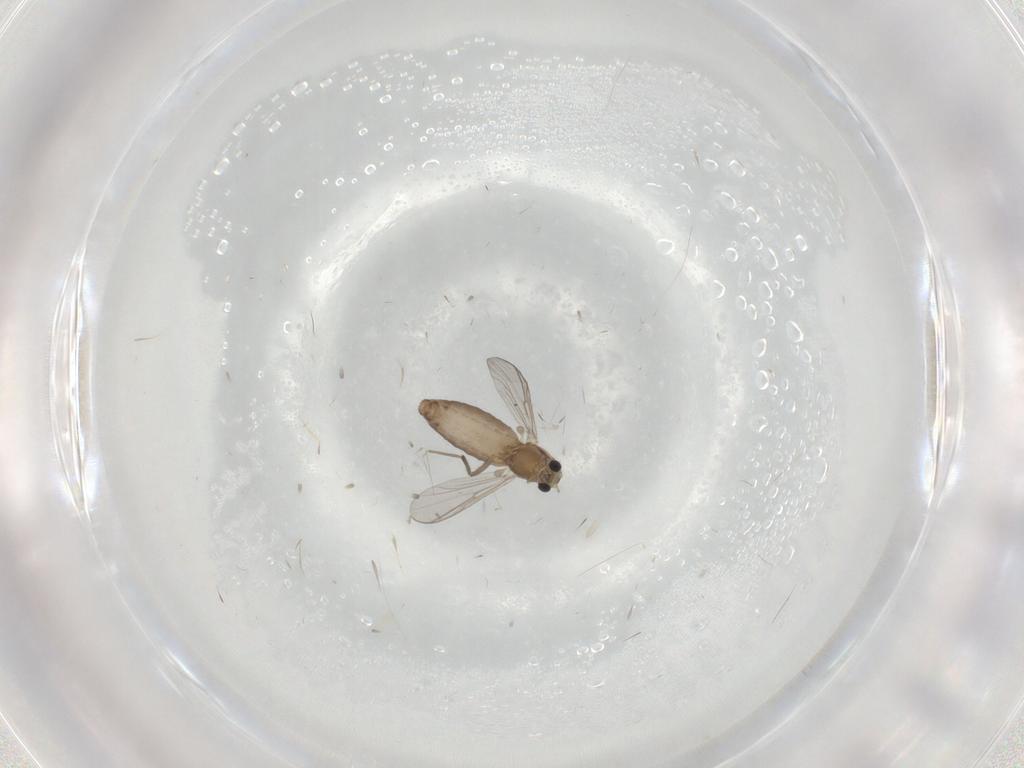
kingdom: Animalia
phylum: Arthropoda
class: Insecta
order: Diptera
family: Chironomidae
